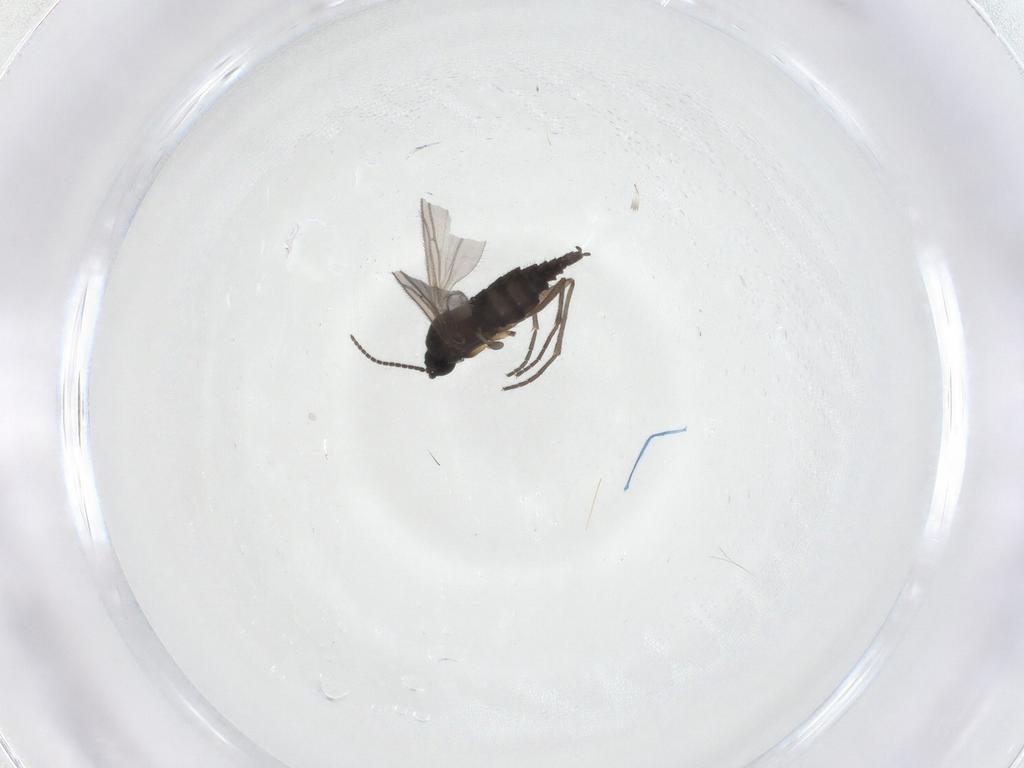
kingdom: Animalia
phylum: Arthropoda
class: Insecta
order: Diptera
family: Sciaridae
